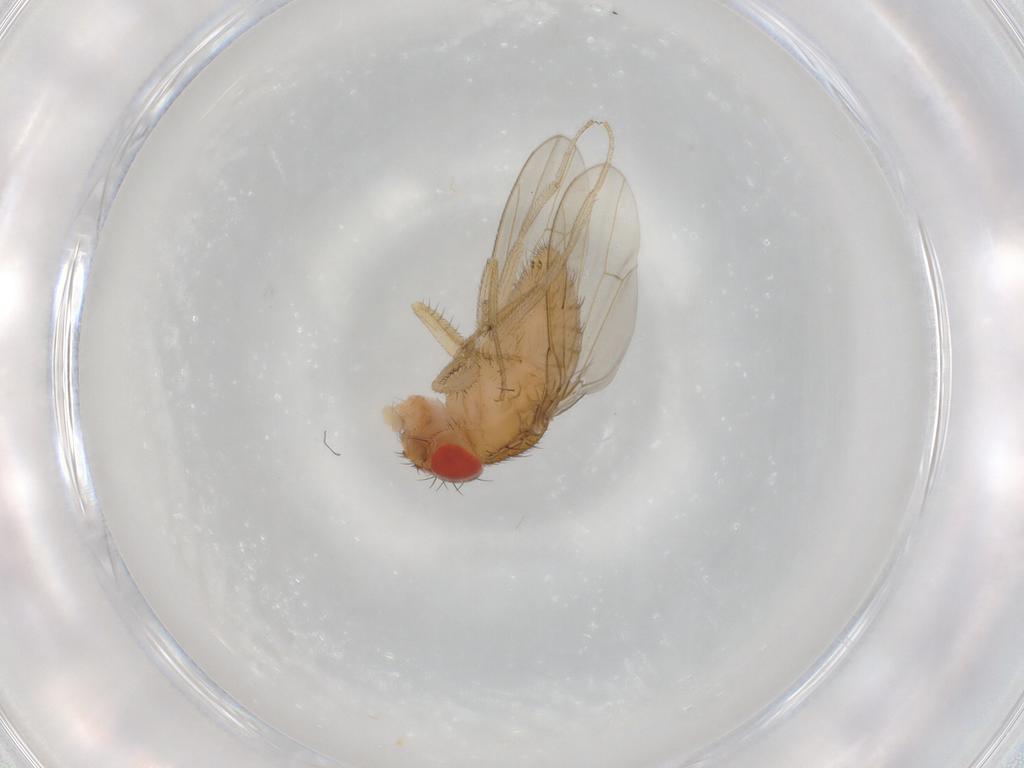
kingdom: Animalia
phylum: Arthropoda
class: Insecta
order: Diptera
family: Drosophilidae
